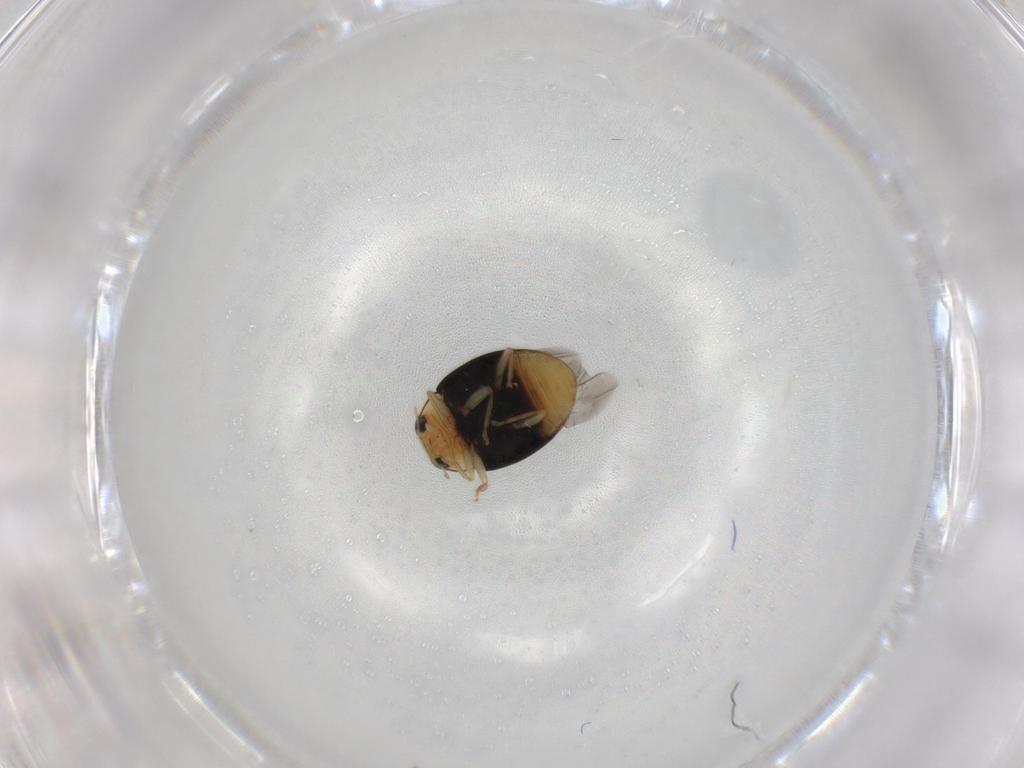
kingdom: Animalia
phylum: Arthropoda
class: Insecta
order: Coleoptera
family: Coccinellidae
